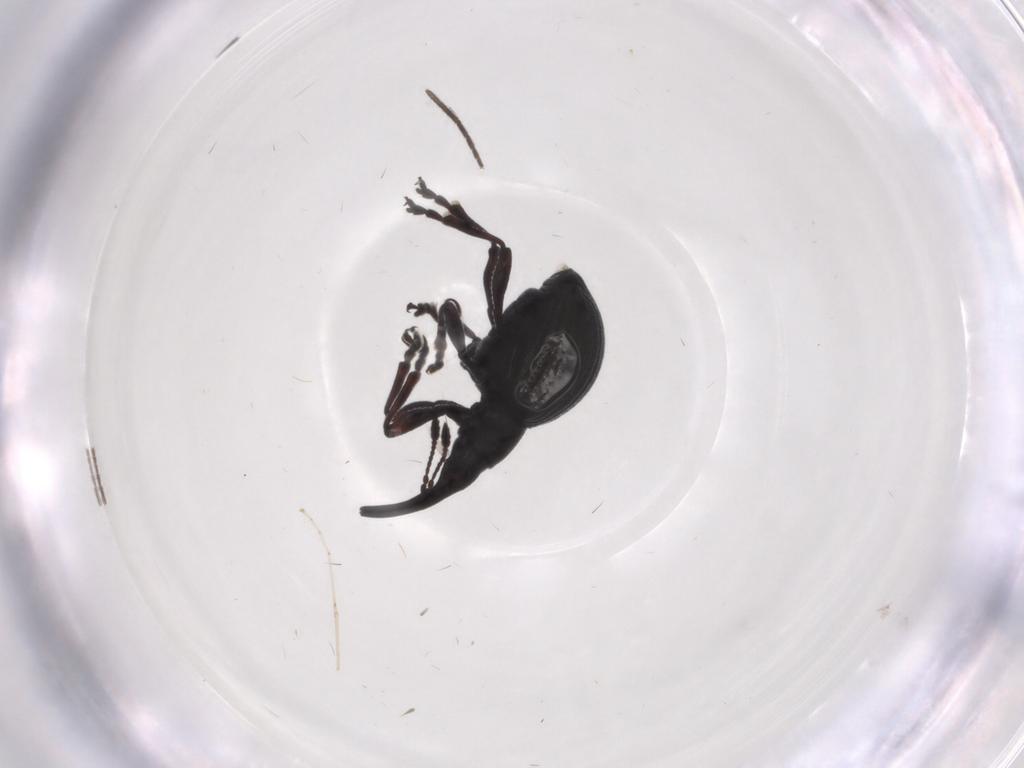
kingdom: Animalia
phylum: Arthropoda
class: Insecta
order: Coleoptera
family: Brentidae
